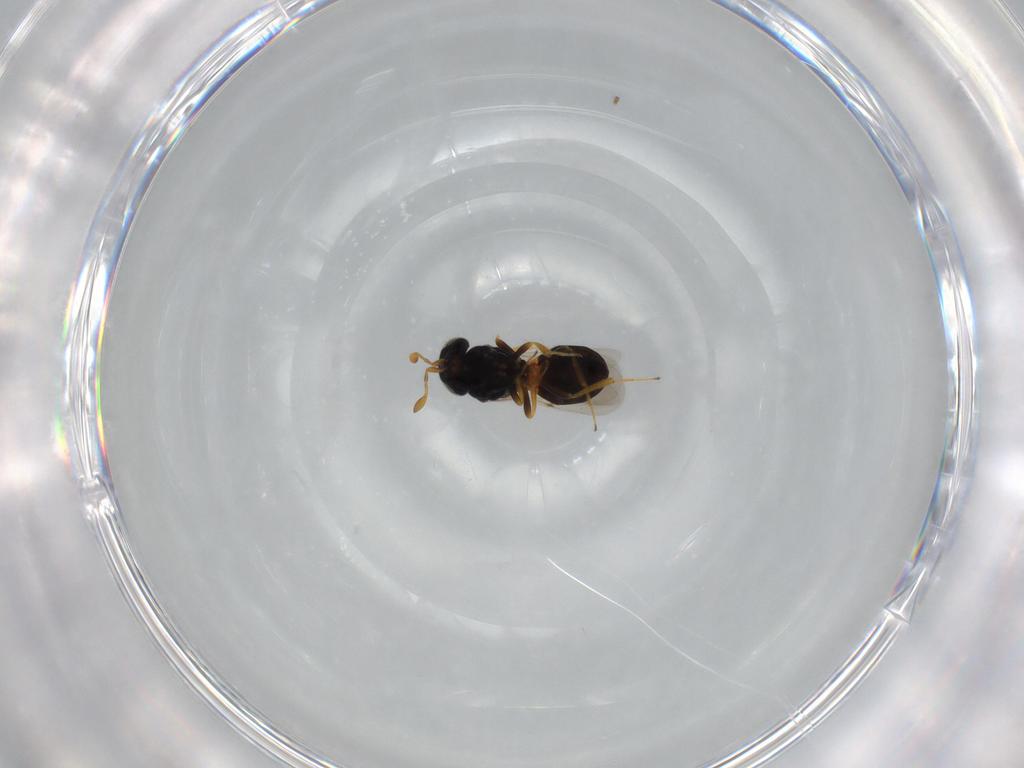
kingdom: Animalia
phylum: Arthropoda
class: Insecta
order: Hymenoptera
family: Scelionidae
